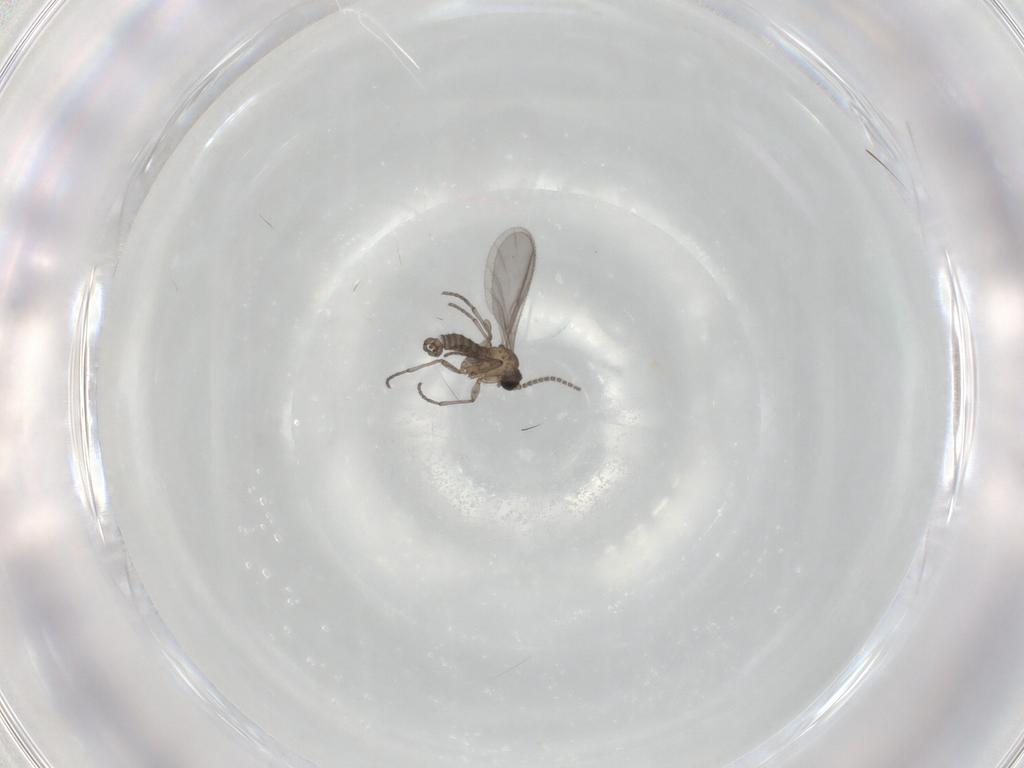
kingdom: Animalia
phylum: Arthropoda
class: Insecta
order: Diptera
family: Sciaridae
